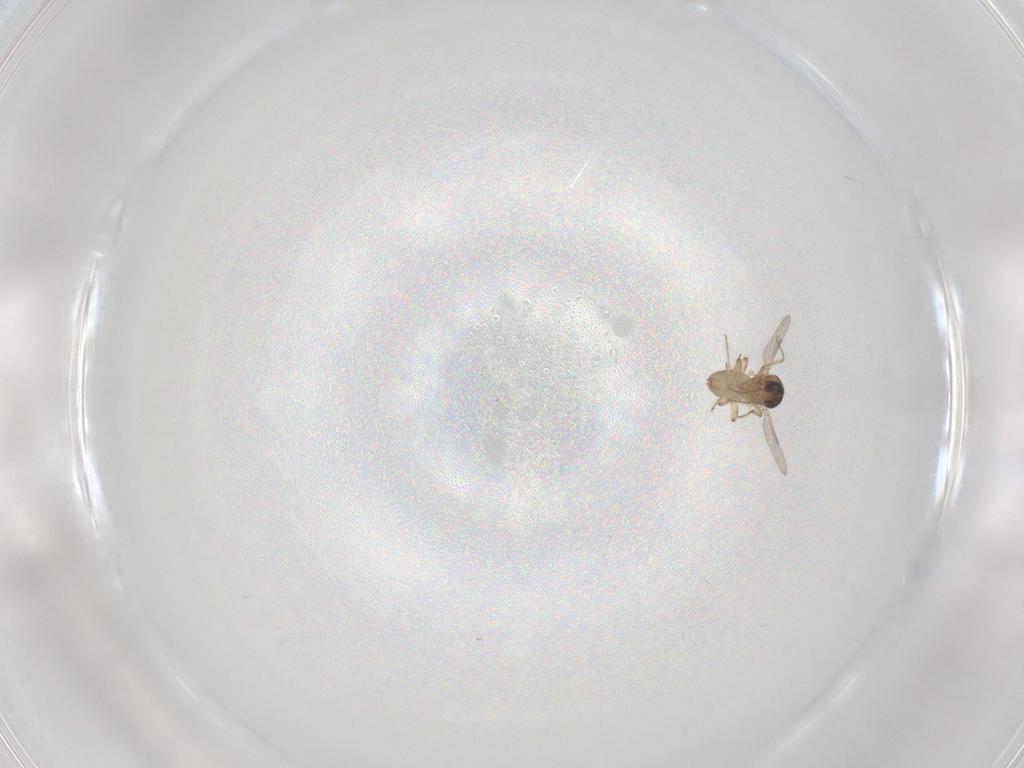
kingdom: Animalia
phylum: Arthropoda
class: Insecta
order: Diptera
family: Ceratopogonidae
